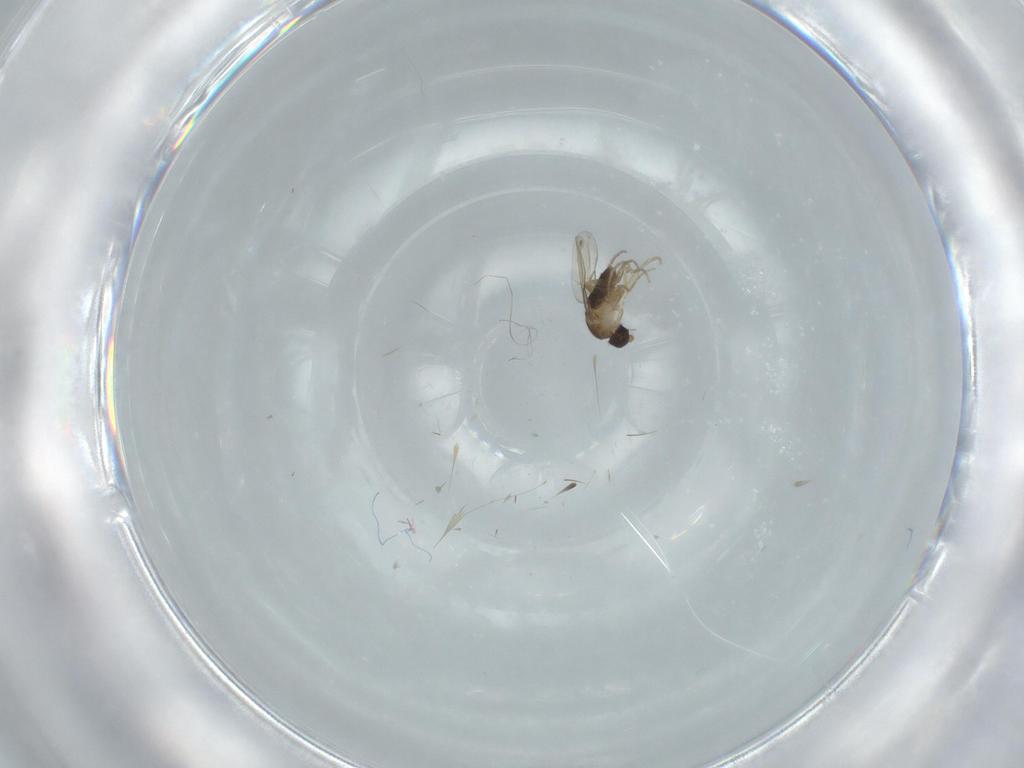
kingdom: Animalia
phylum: Arthropoda
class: Insecta
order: Diptera
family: Phoridae
